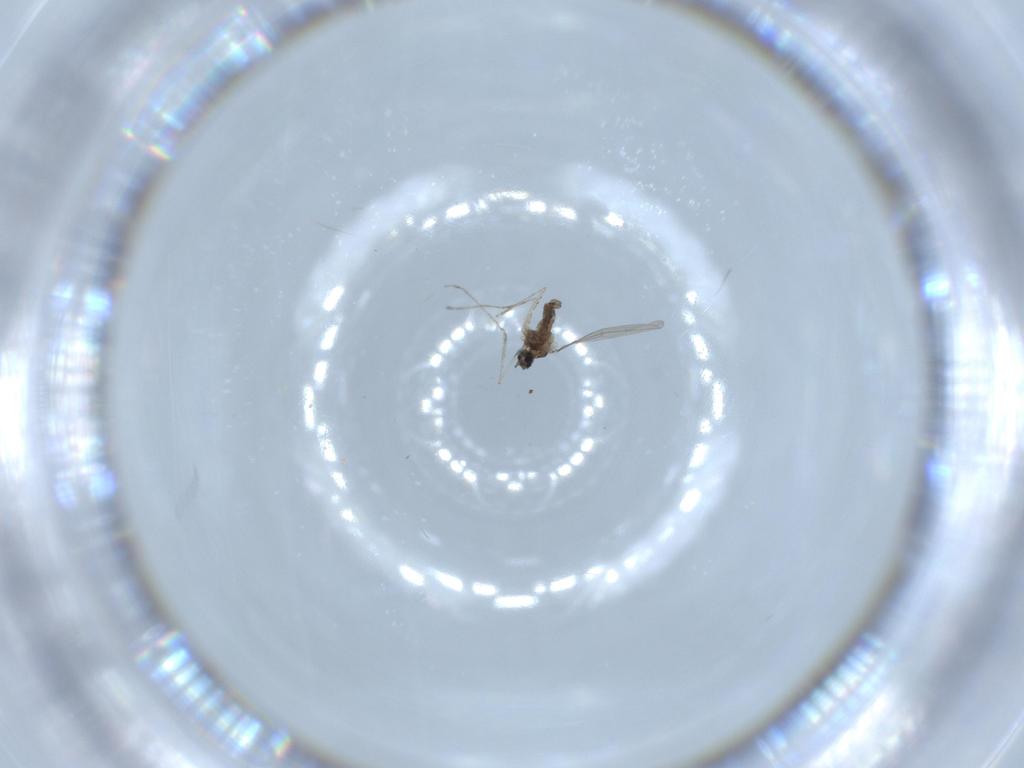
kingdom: Animalia
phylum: Arthropoda
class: Insecta
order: Diptera
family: Cecidomyiidae
